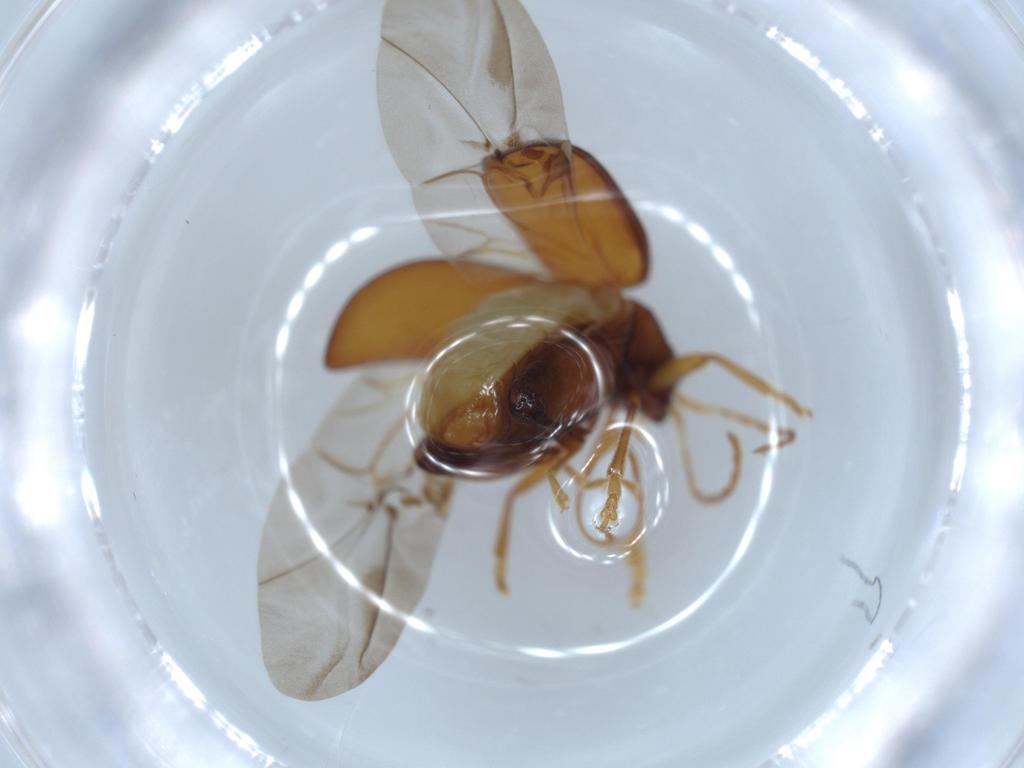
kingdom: Animalia
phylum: Arthropoda
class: Insecta
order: Coleoptera
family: Chrysomelidae
